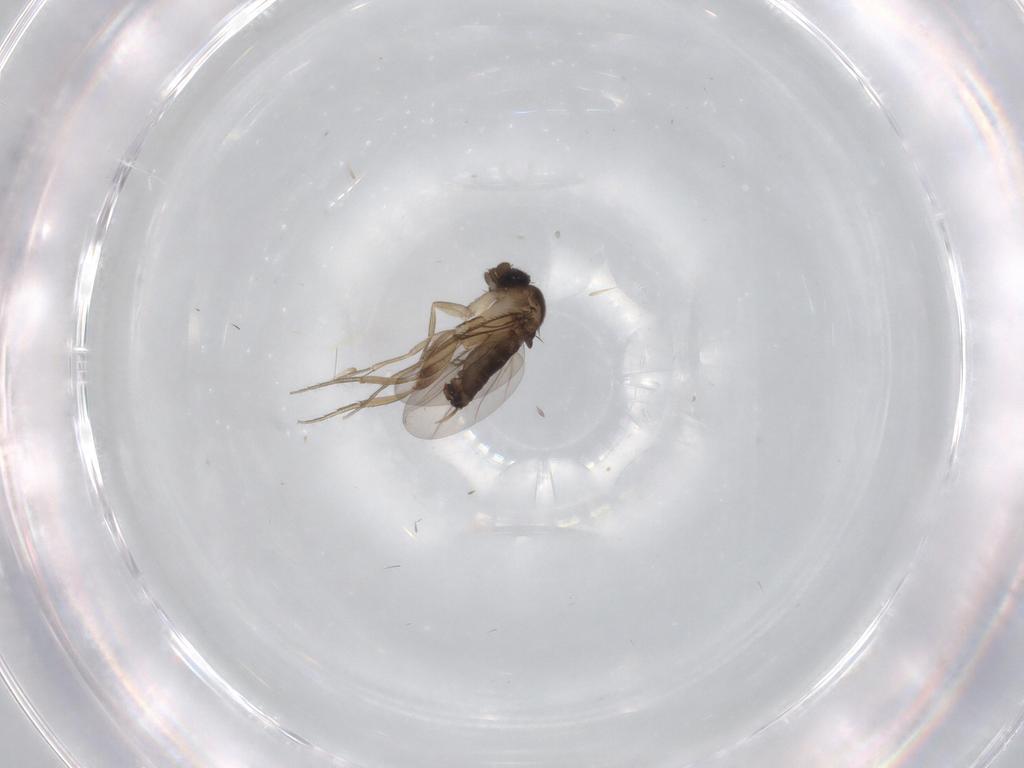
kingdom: Animalia
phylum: Arthropoda
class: Insecta
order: Diptera
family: Phoridae
